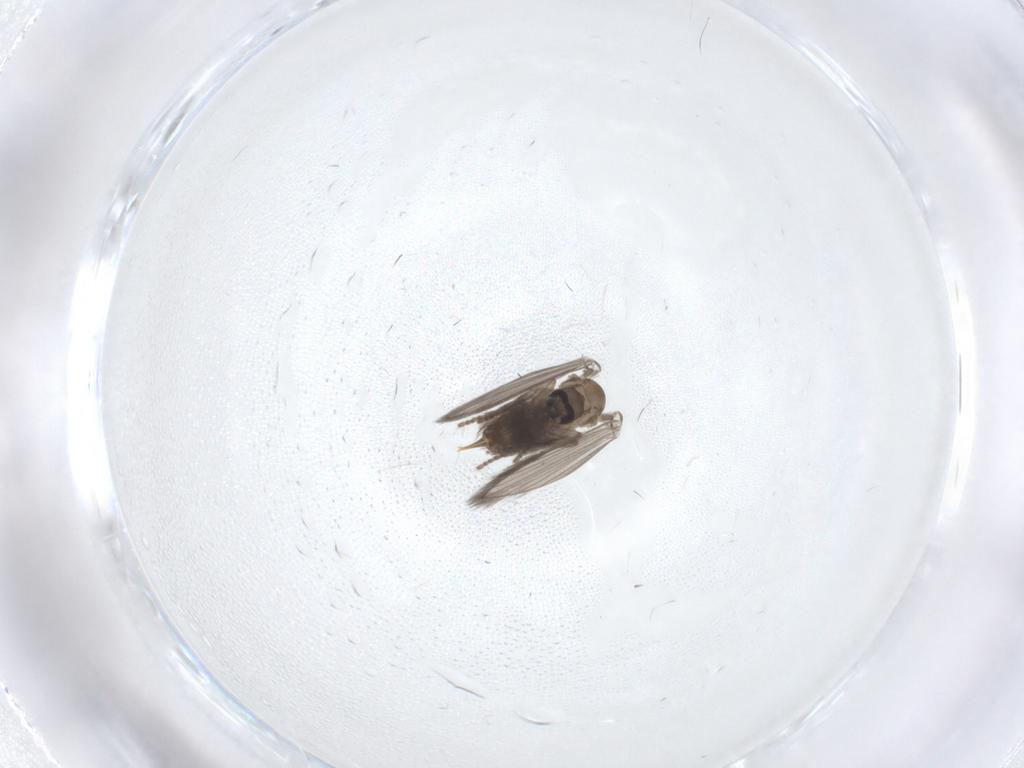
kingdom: Animalia
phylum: Arthropoda
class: Insecta
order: Diptera
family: Psychodidae
